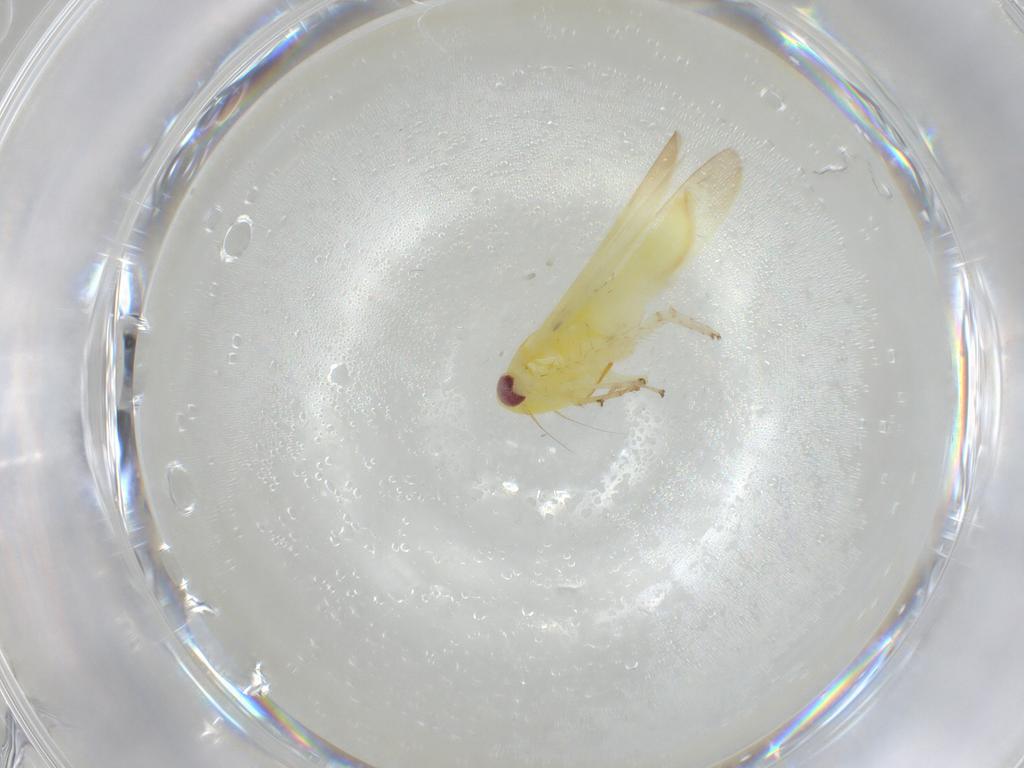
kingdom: Animalia
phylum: Arthropoda
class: Insecta
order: Hemiptera
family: Cicadellidae
